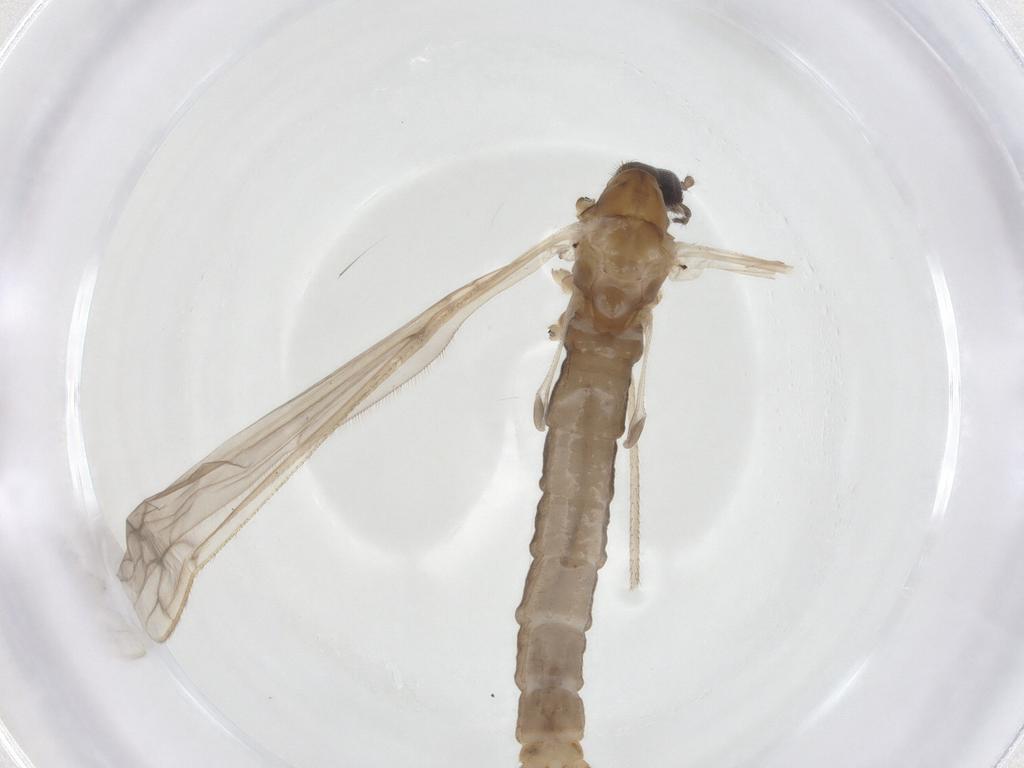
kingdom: Animalia
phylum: Arthropoda
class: Insecta
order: Diptera
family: Limoniidae
